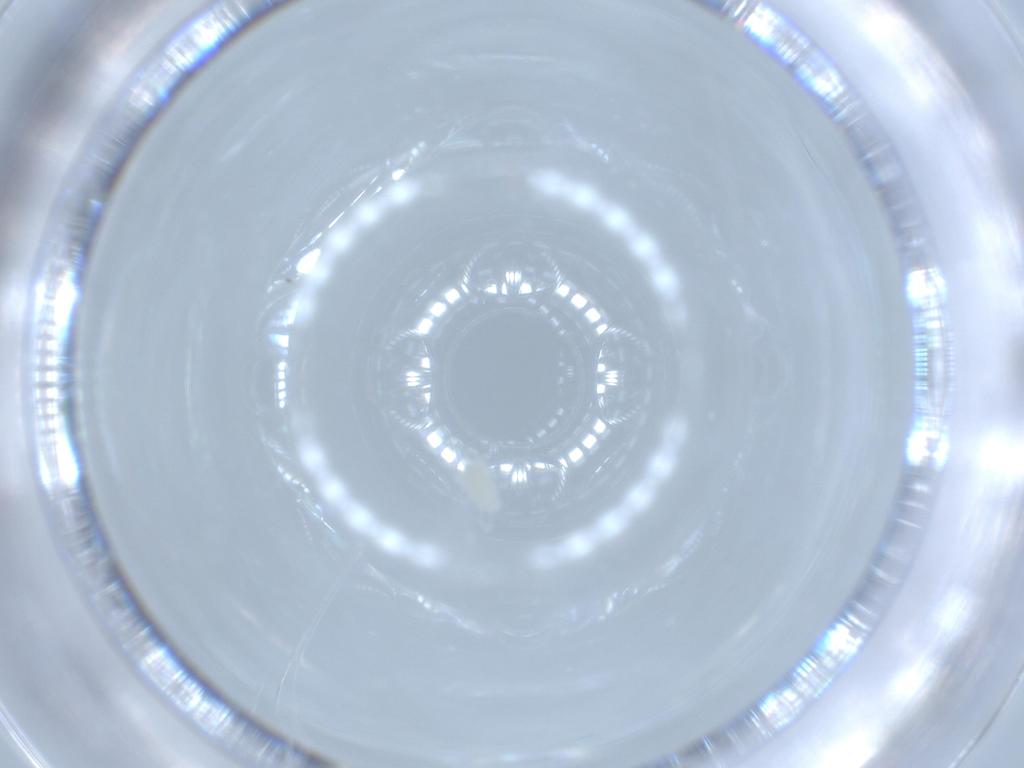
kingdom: Animalia
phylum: Arthropoda
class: Arachnida
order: Trombidiformes
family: Eupodidae
